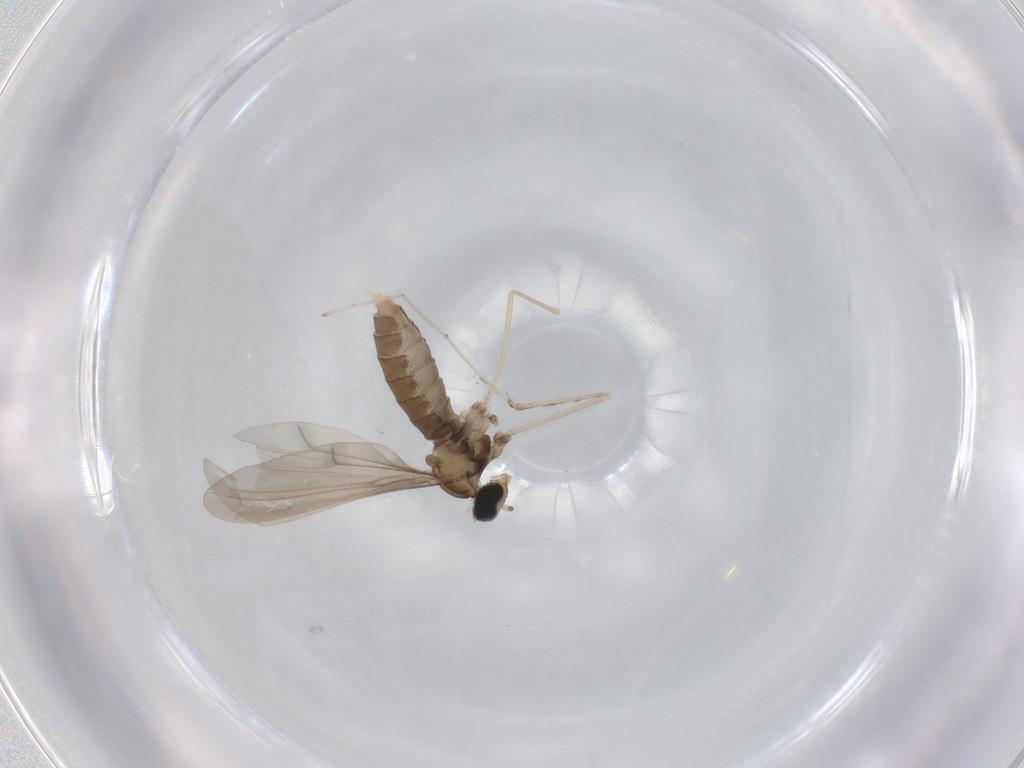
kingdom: Animalia
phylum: Arthropoda
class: Insecta
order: Diptera
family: Cecidomyiidae
